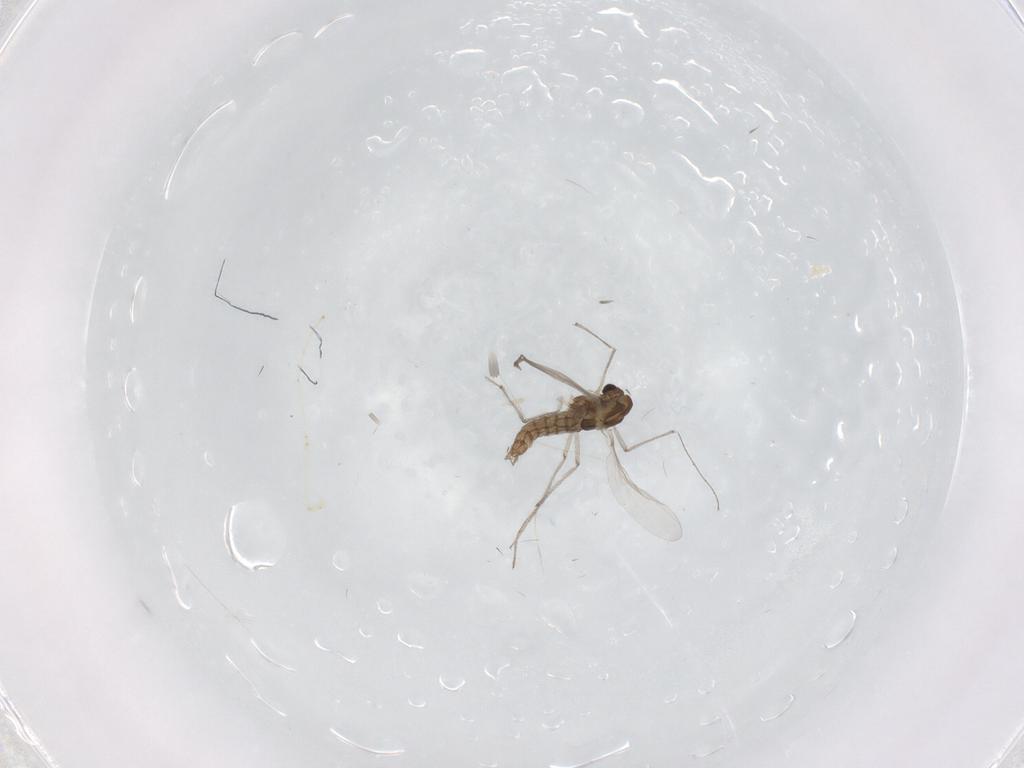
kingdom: Animalia
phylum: Arthropoda
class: Insecta
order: Diptera
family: Chironomidae
